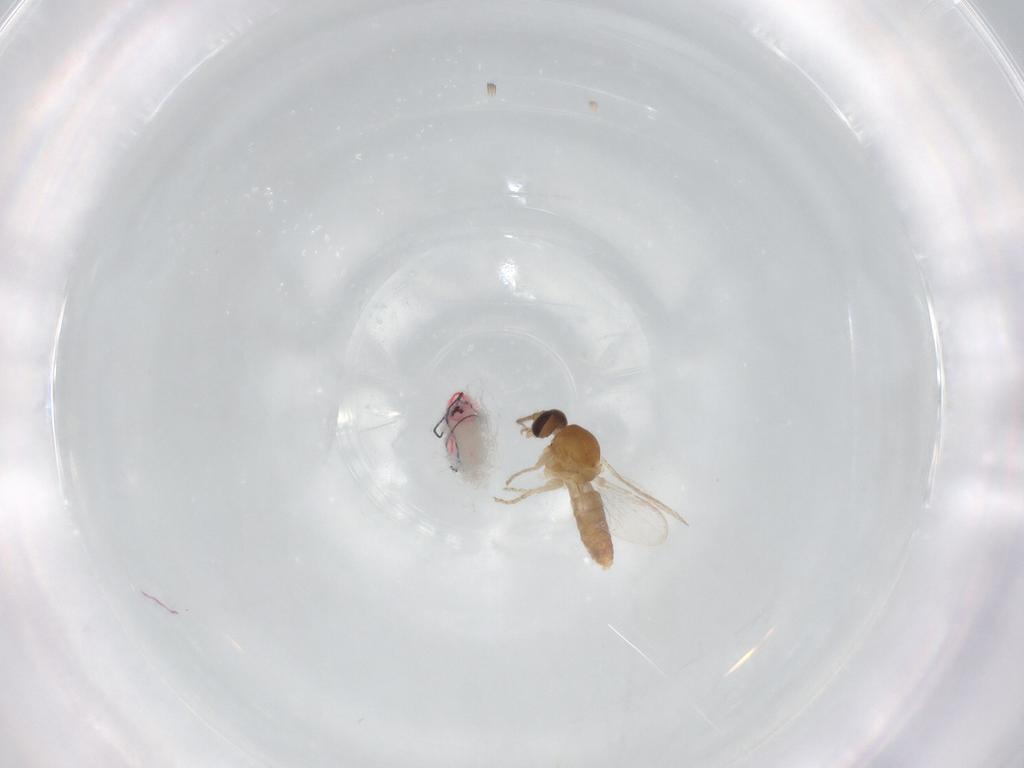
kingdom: Animalia
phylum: Arthropoda
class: Insecta
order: Diptera
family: Ceratopogonidae
